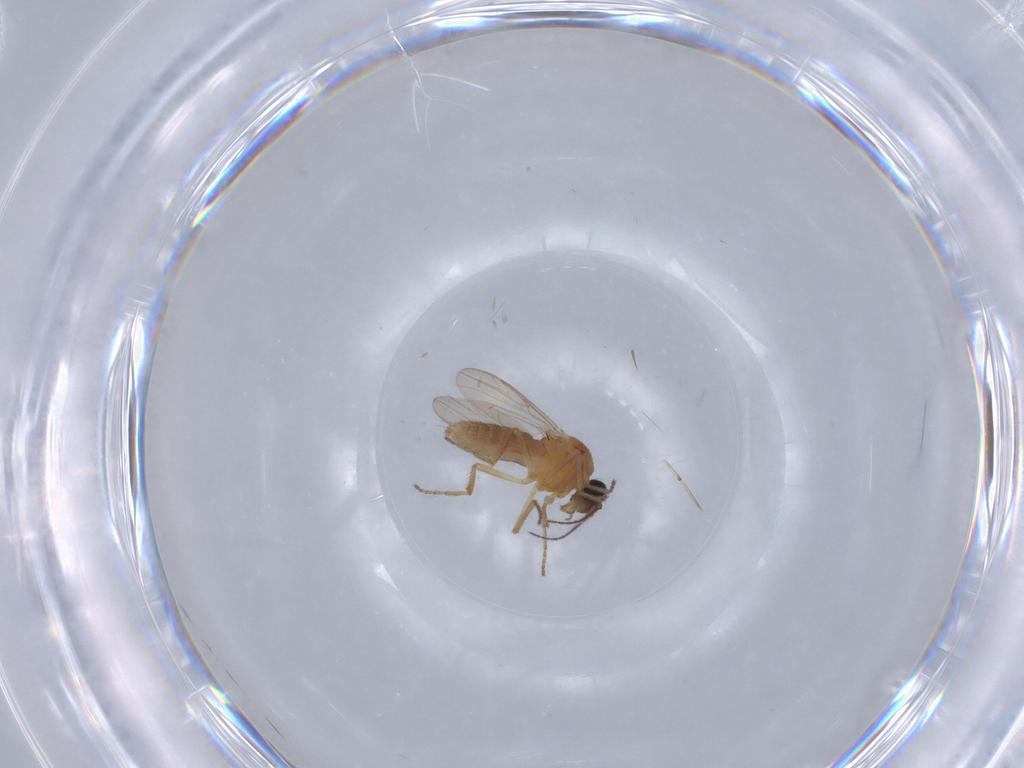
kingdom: Animalia
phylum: Arthropoda
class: Insecta
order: Diptera
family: Ceratopogonidae
